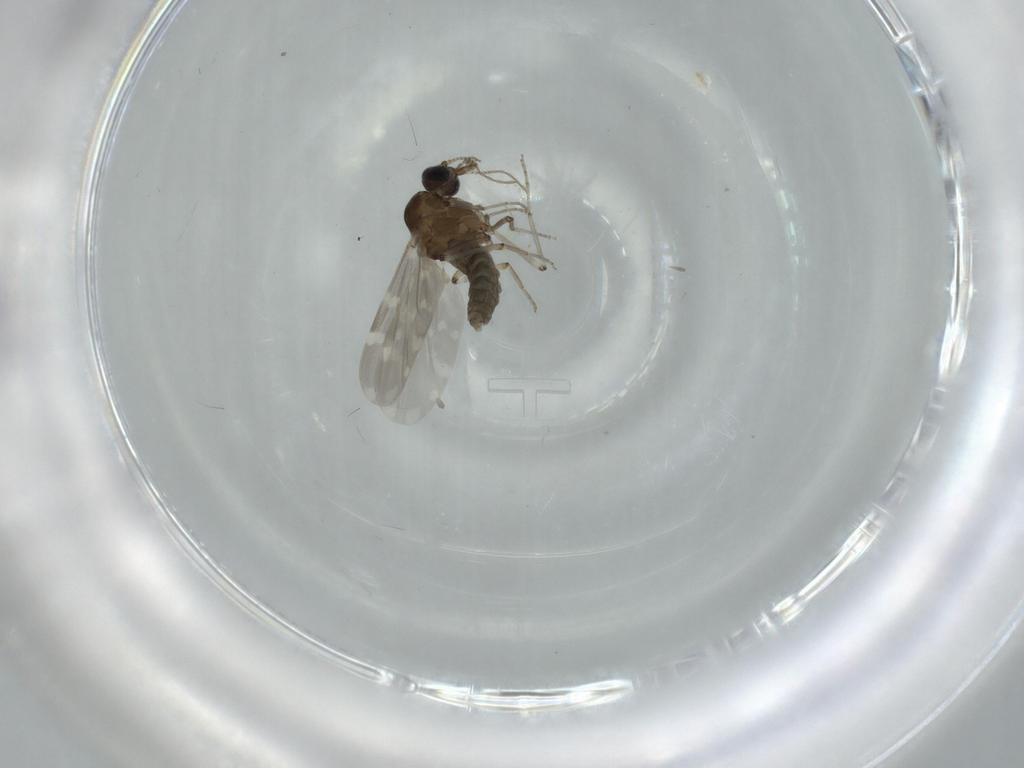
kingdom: Animalia
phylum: Arthropoda
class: Insecta
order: Diptera
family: Ceratopogonidae
